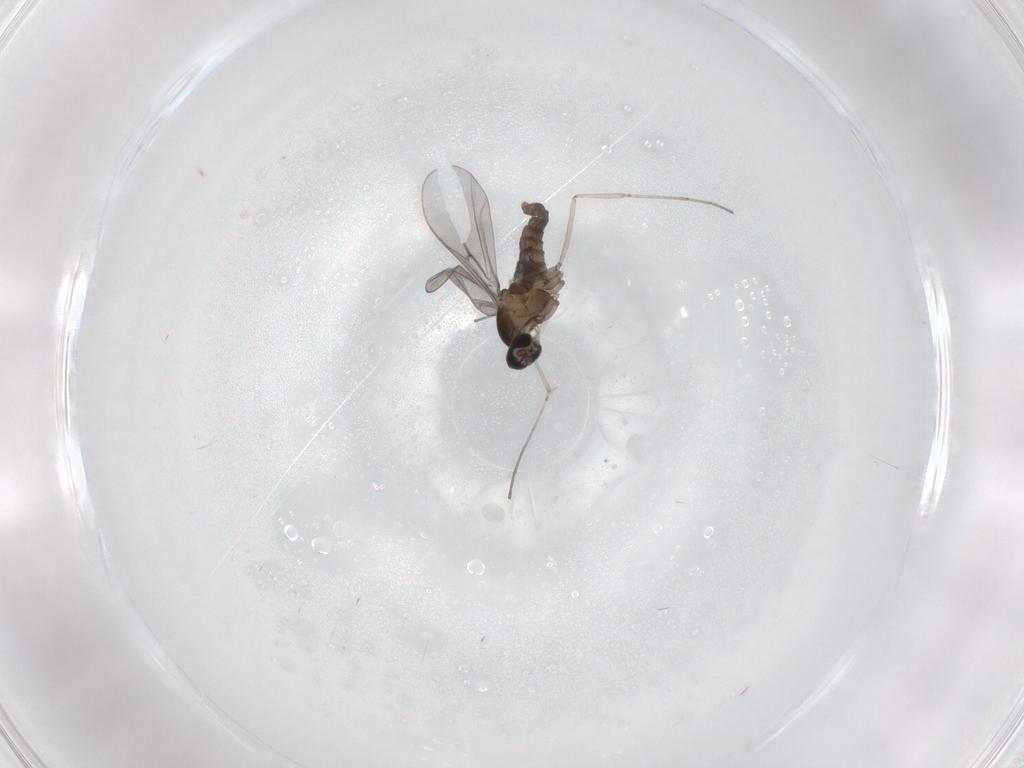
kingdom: Animalia
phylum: Arthropoda
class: Insecta
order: Diptera
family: Cecidomyiidae
